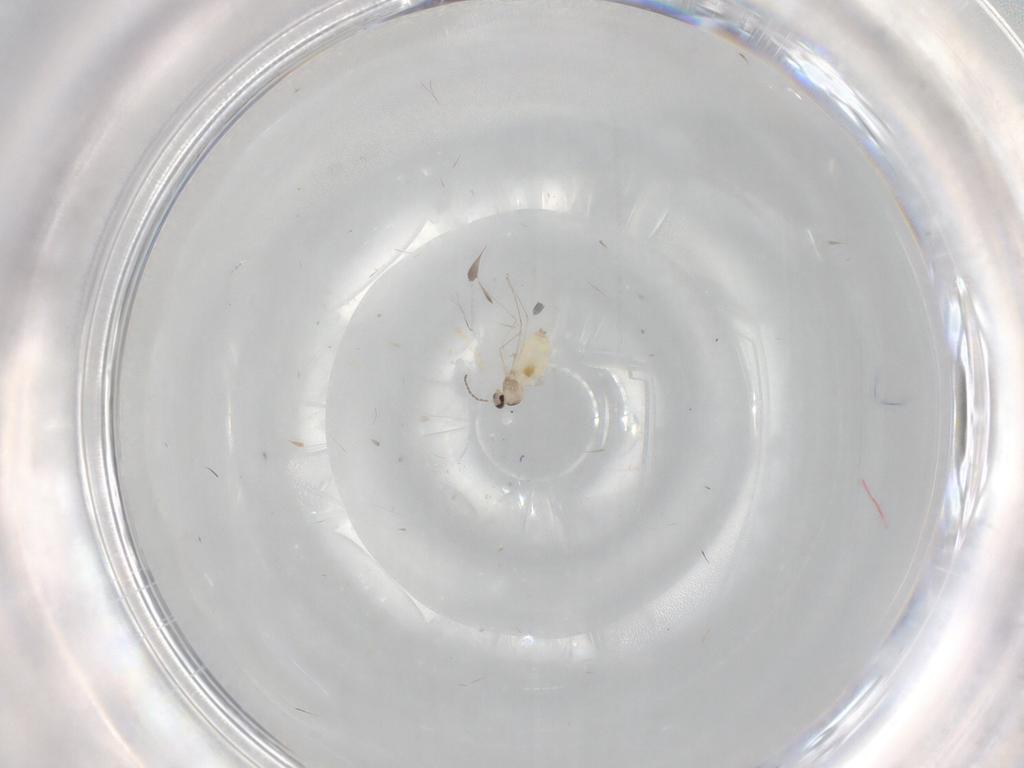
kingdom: Animalia
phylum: Arthropoda
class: Insecta
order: Diptera
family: Cecidomyiidae
